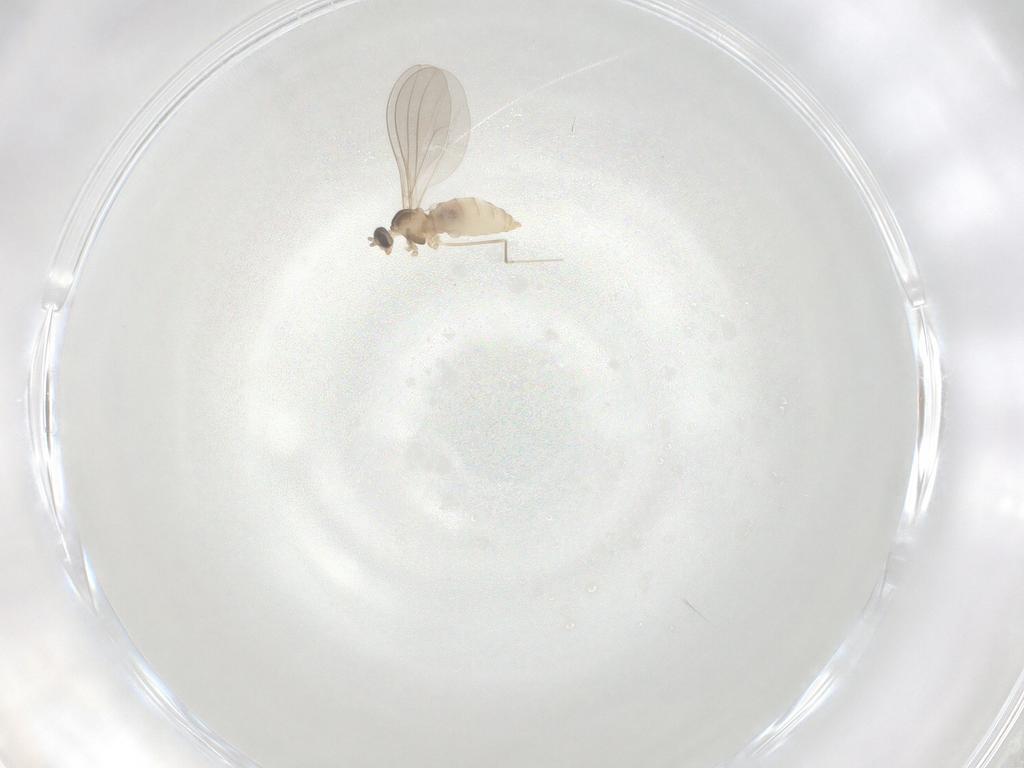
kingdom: Animalia
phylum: Arthropoda
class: Insecta
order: Diptera
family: Cecidomyiidae
